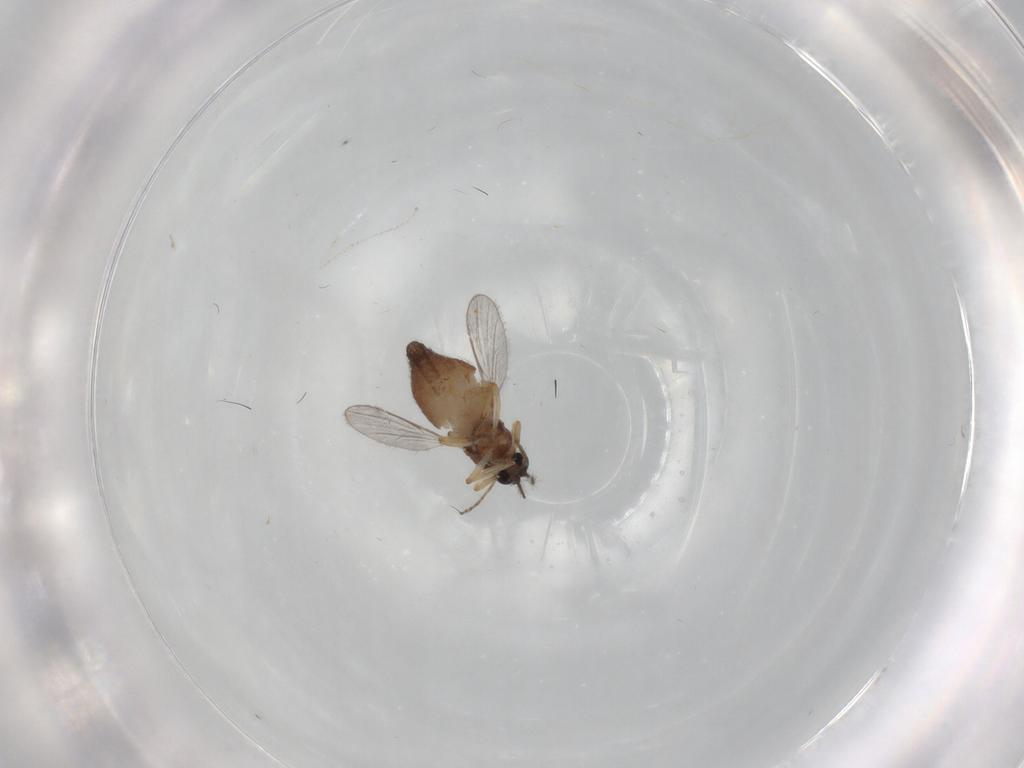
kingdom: Animalia
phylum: Arthropoda
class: Insecta
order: Diptera
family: Ceratopogonidae
